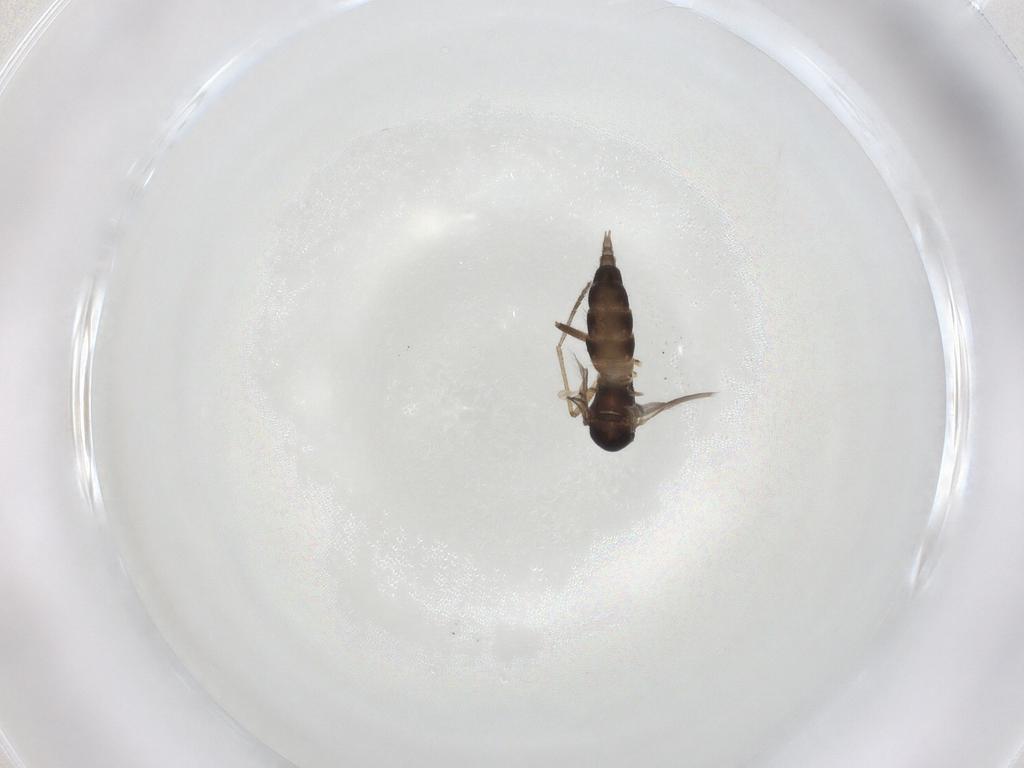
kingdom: Animalia
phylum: Arthropoda
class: Insecta
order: Diptera
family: Sciaridae
